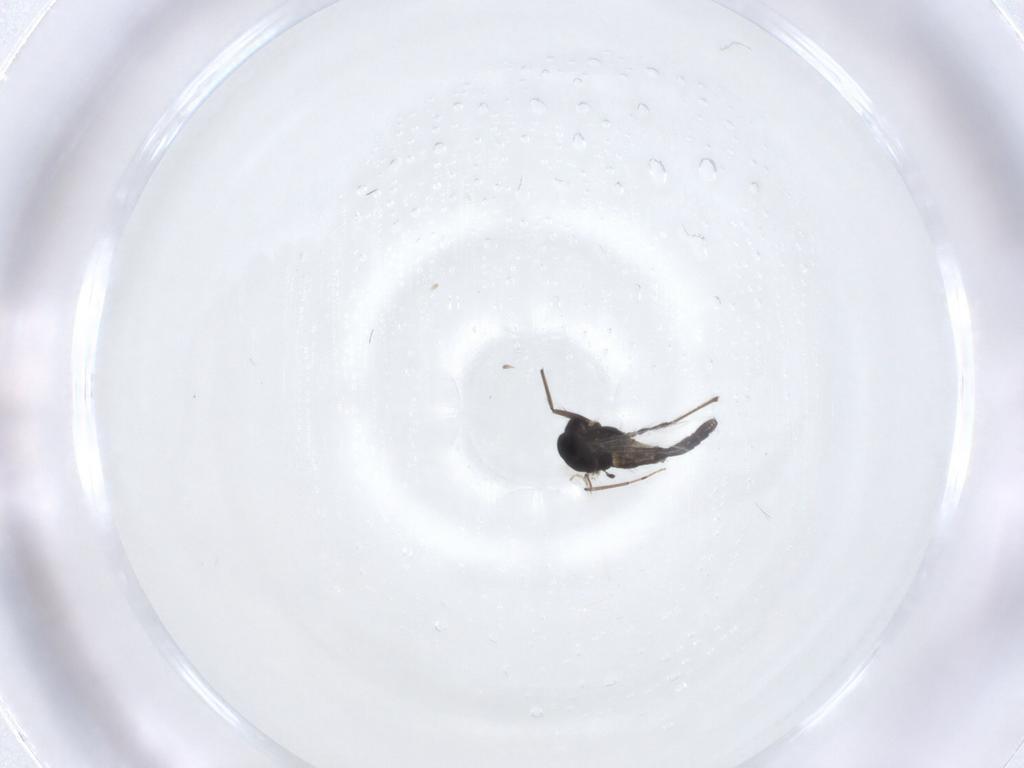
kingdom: Animalia
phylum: Arthropoda
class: Insecta
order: Diptera
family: Chironomidae
